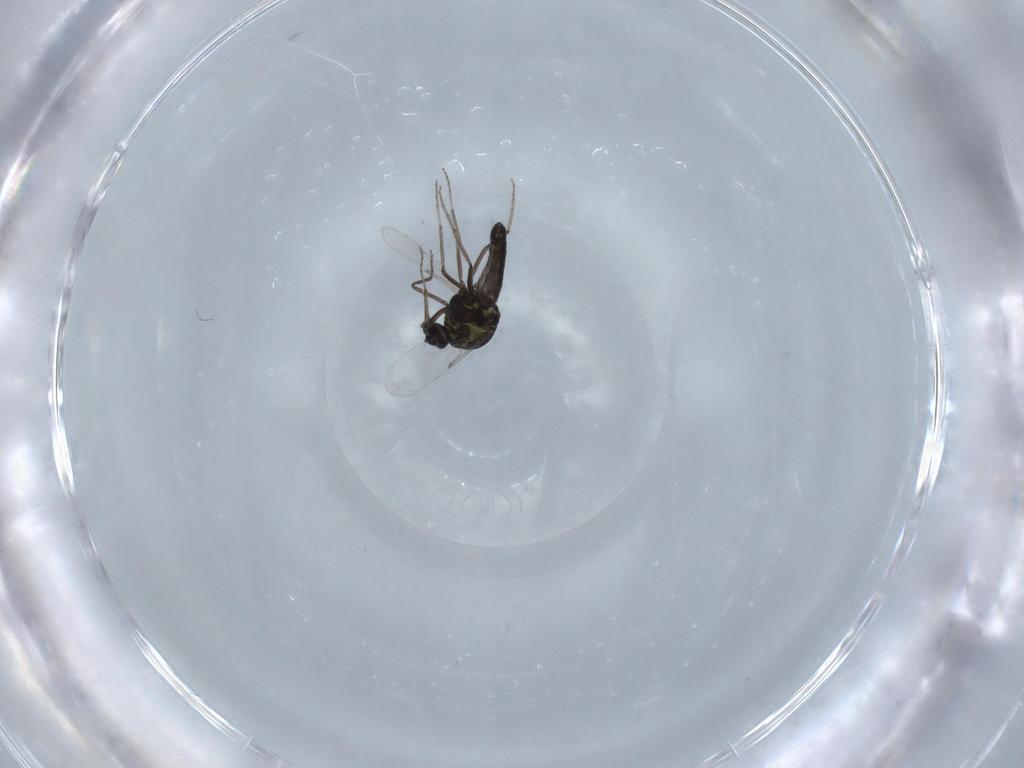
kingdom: Animalia
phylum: Arthropoda
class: Insecta
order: Diptera
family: Ceratopogonidae
